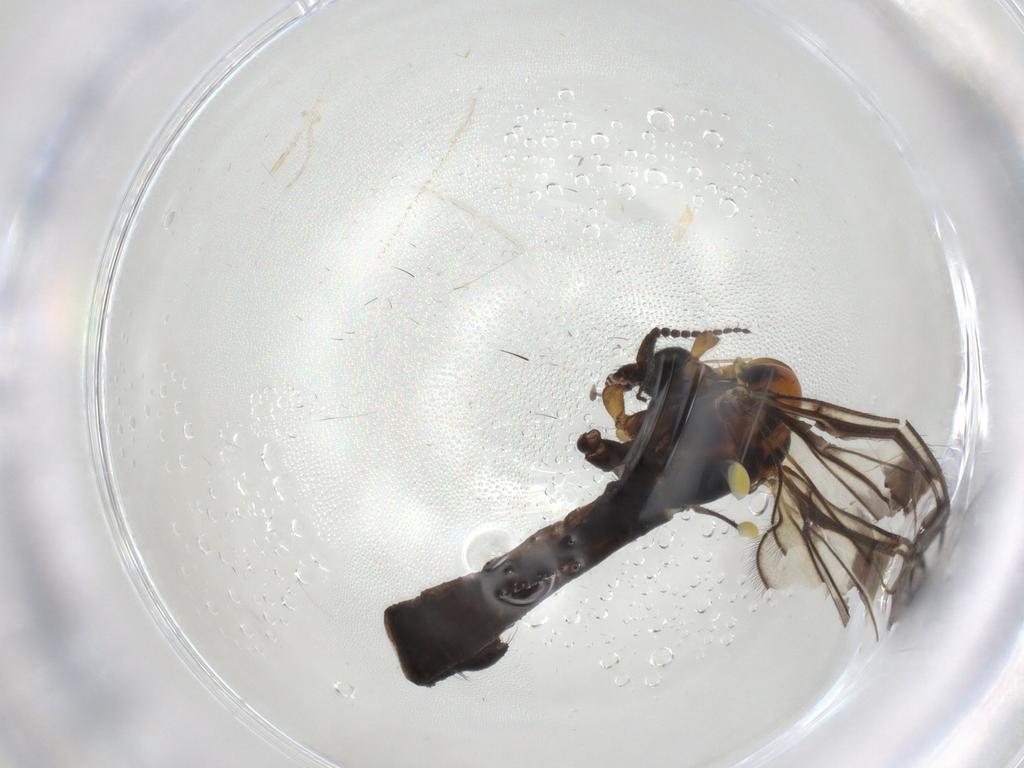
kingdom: Animalia
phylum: Arthropoda
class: Insecta
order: Diptera
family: Limoniidae
